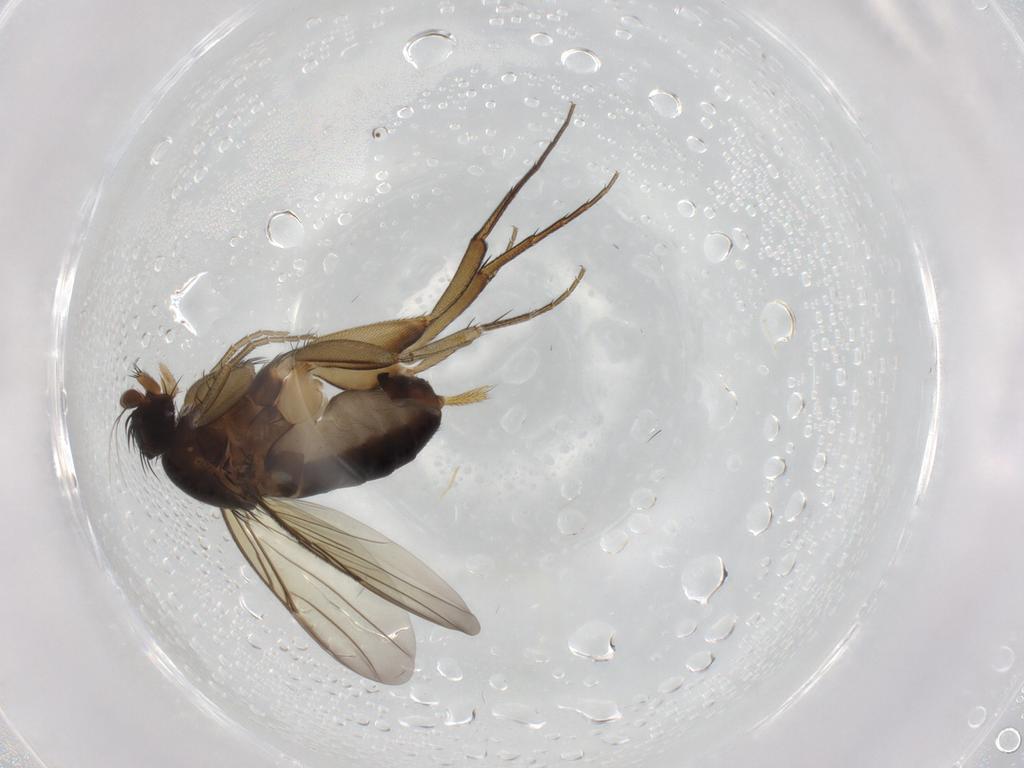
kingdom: Animalia
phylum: Arthropoda
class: Insecta
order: Diptera
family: Phoridae
